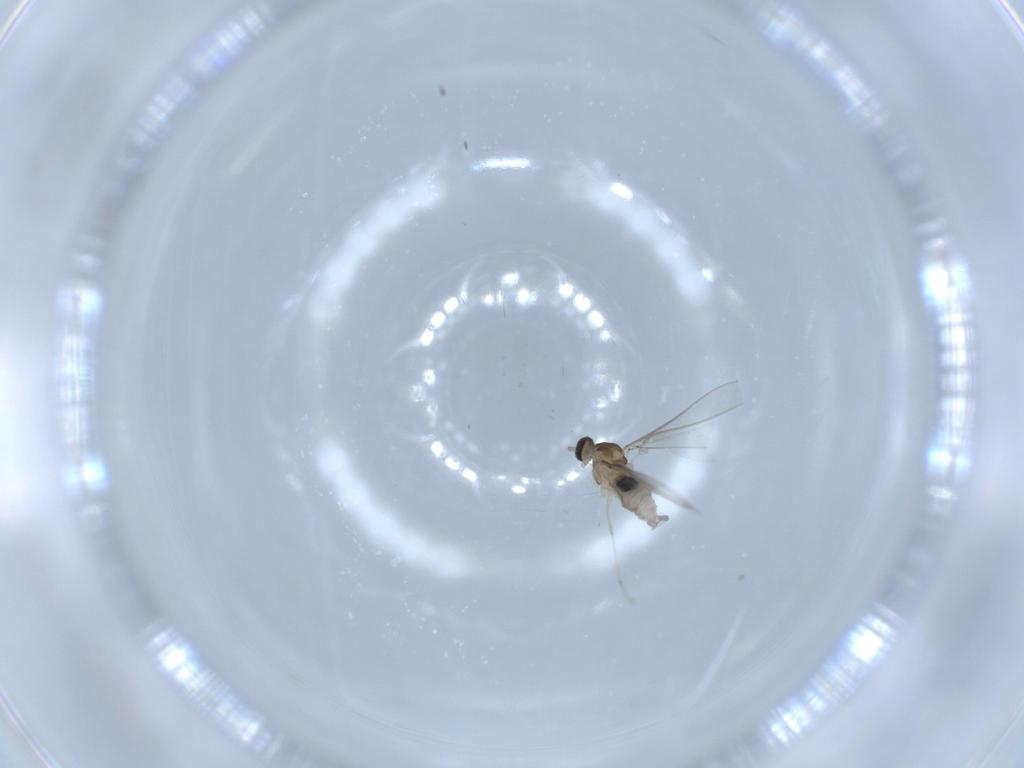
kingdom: Animalia
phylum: Arthropoda
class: Insecta
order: Diptera
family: Cecidomyiidae
